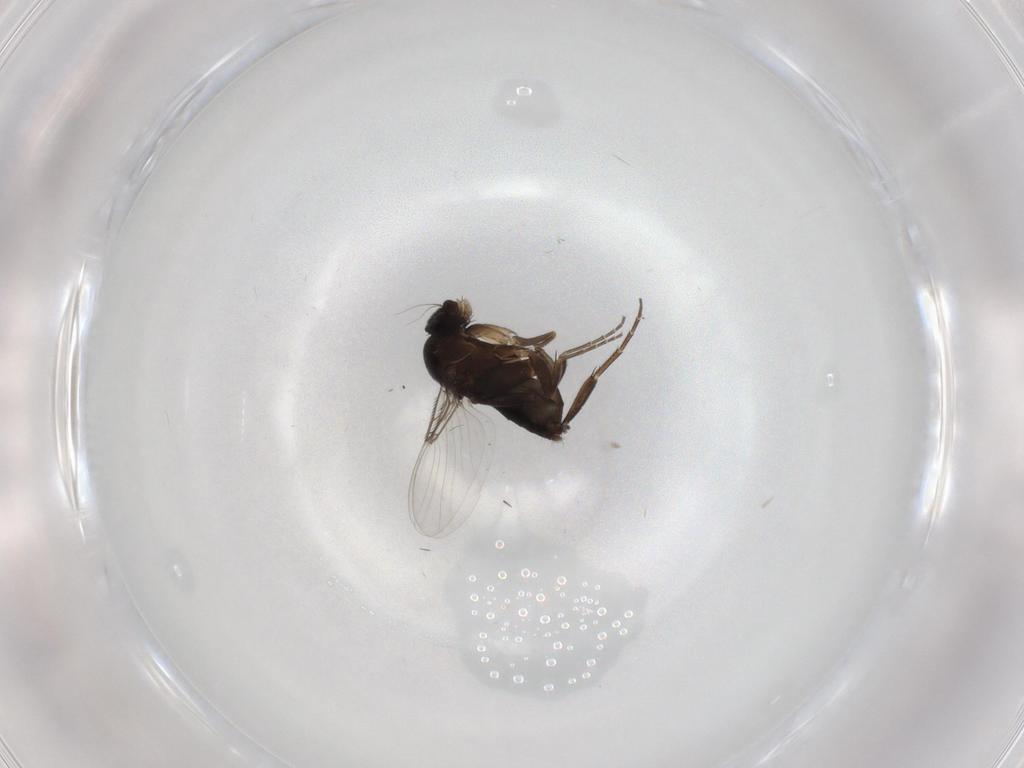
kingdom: Animalia
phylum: Arthropoda
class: Insecta
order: Diptera
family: Phoridae
